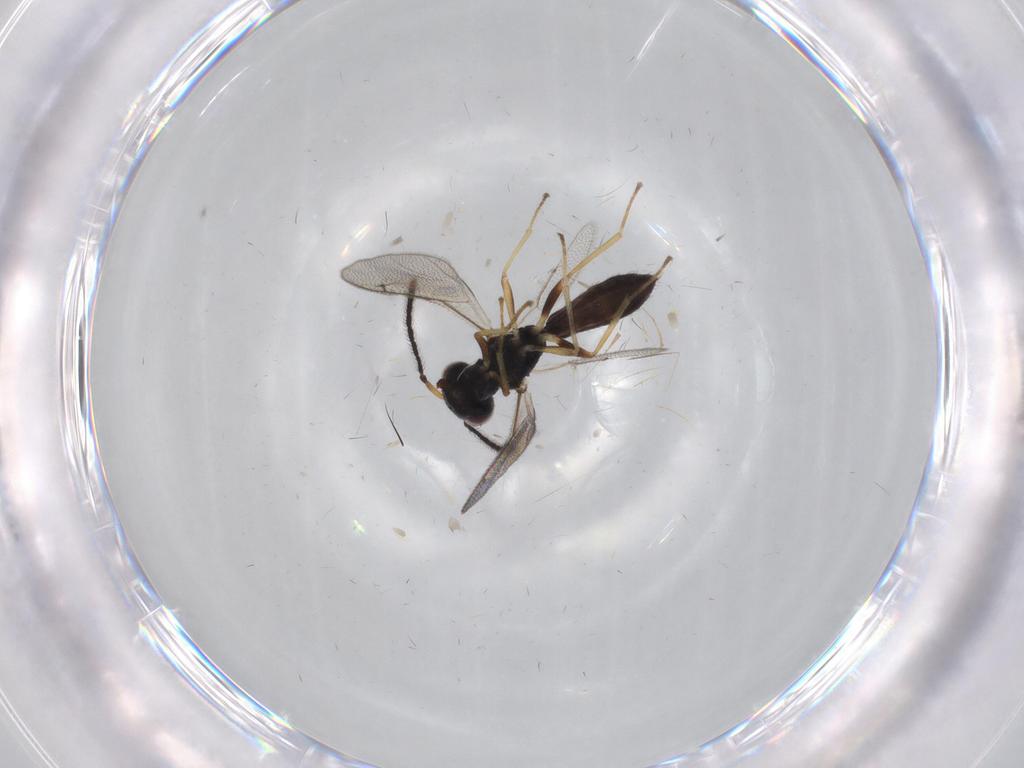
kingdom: Animalia
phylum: Arthropoda
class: Insecta
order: Hymenoptera
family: Pteromalidae
